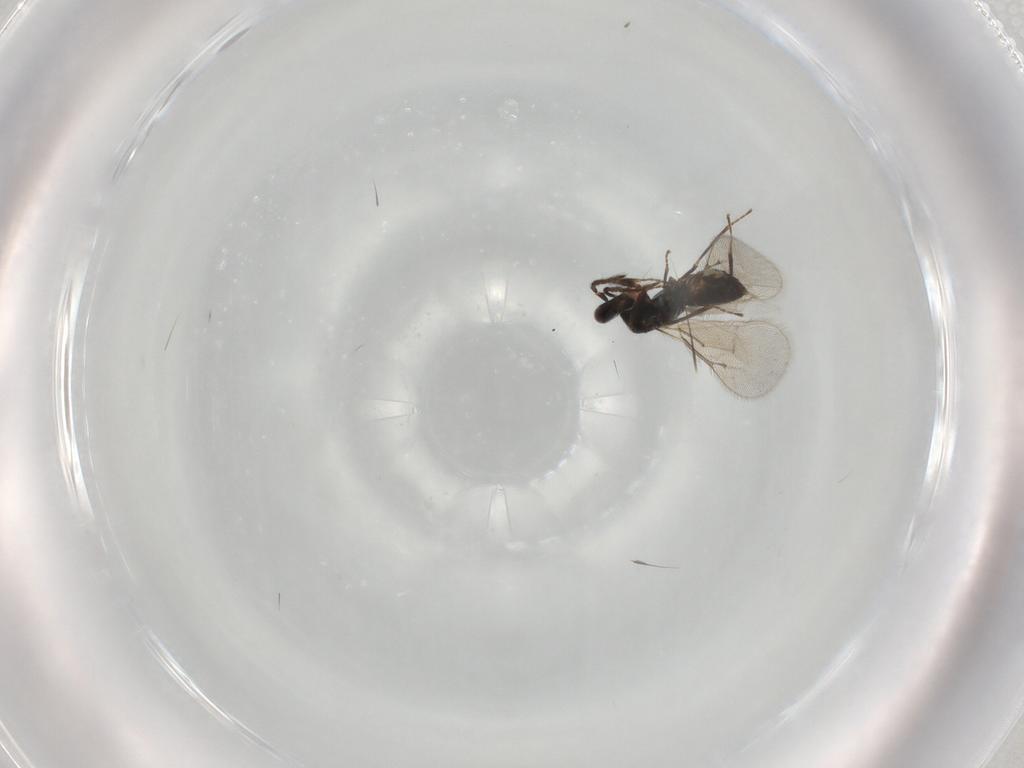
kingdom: Animalia
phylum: Arthropoda
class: Insecta
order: Hymenoptera
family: Eulophidae
